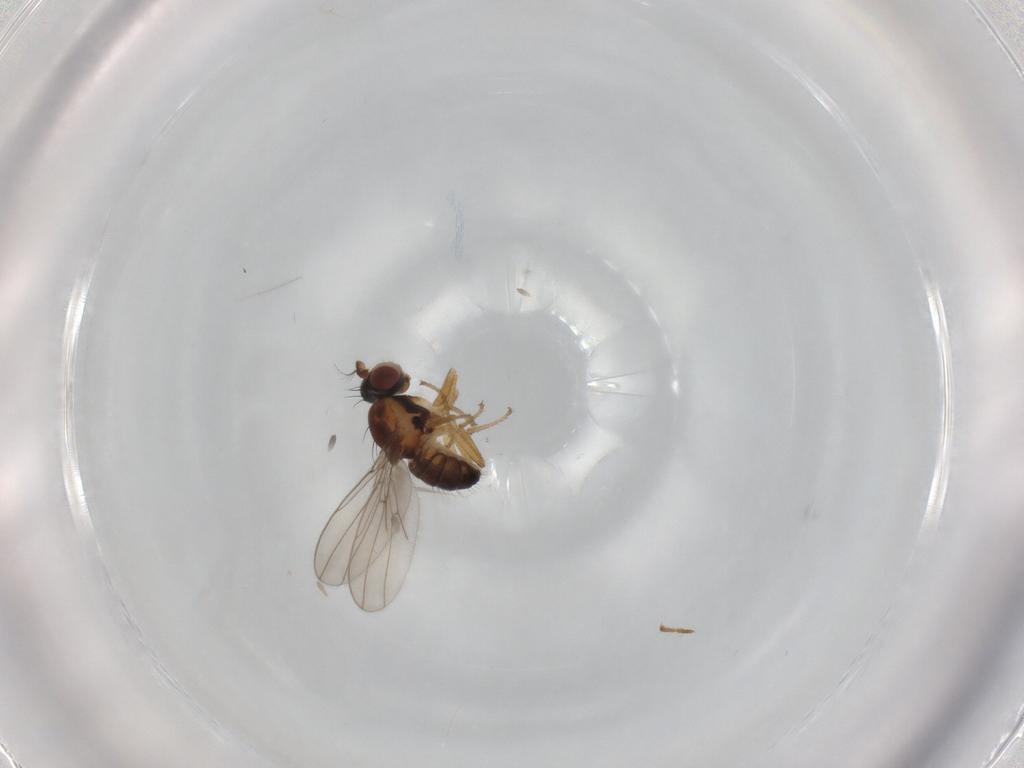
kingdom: Animalia
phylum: Arthropoda
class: Insecta
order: Diptera
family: Ephydridae
